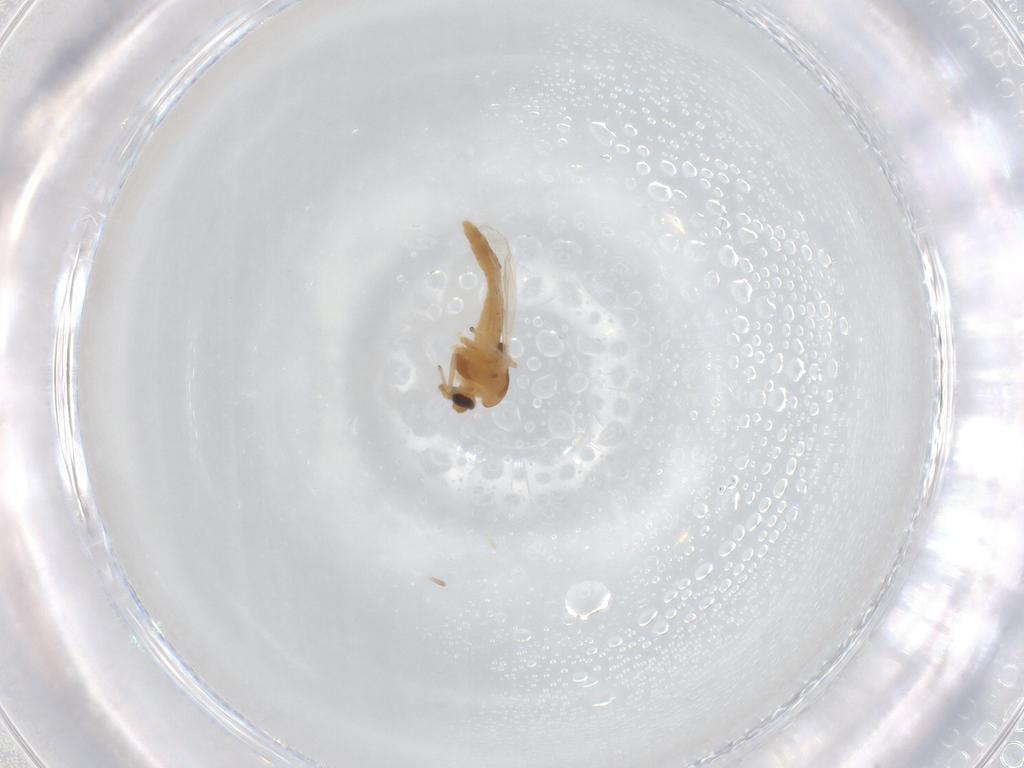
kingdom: Animalia
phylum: Arthropoda
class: Insecta
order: Diptera
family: Chironomidae
